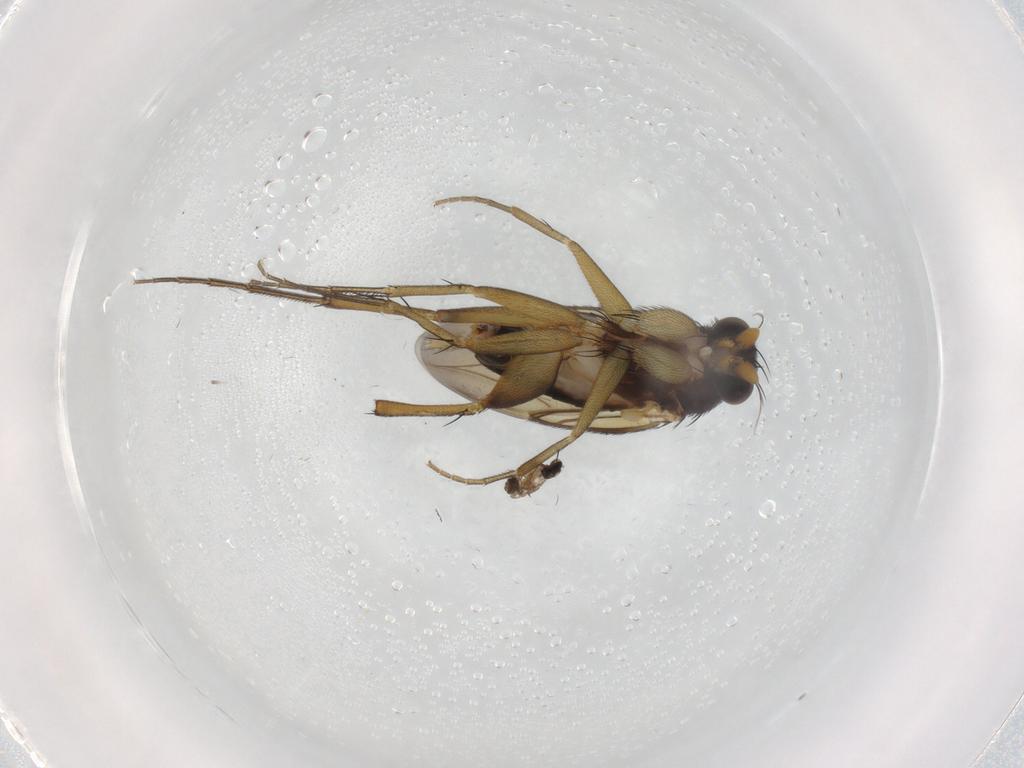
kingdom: Animalia
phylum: Arthropoda
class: Insecta
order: Diptera
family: Phoridae
